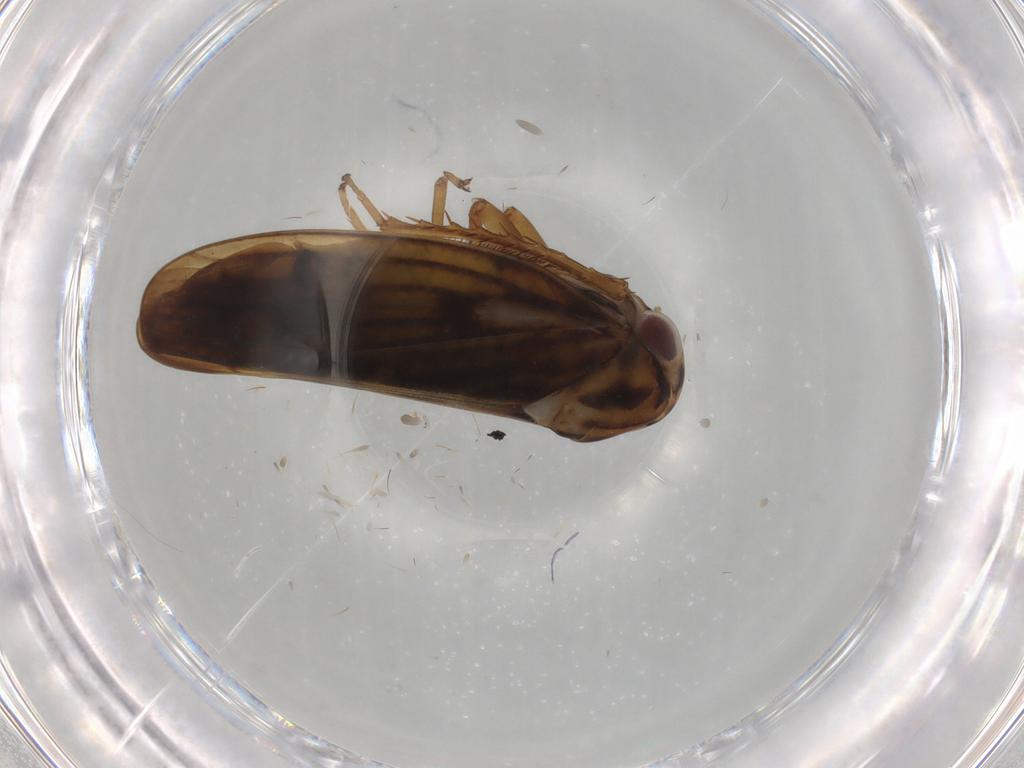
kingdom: Animalia
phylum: Arthropoda
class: Insecta
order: Hemiptera
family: Cicadellidae
